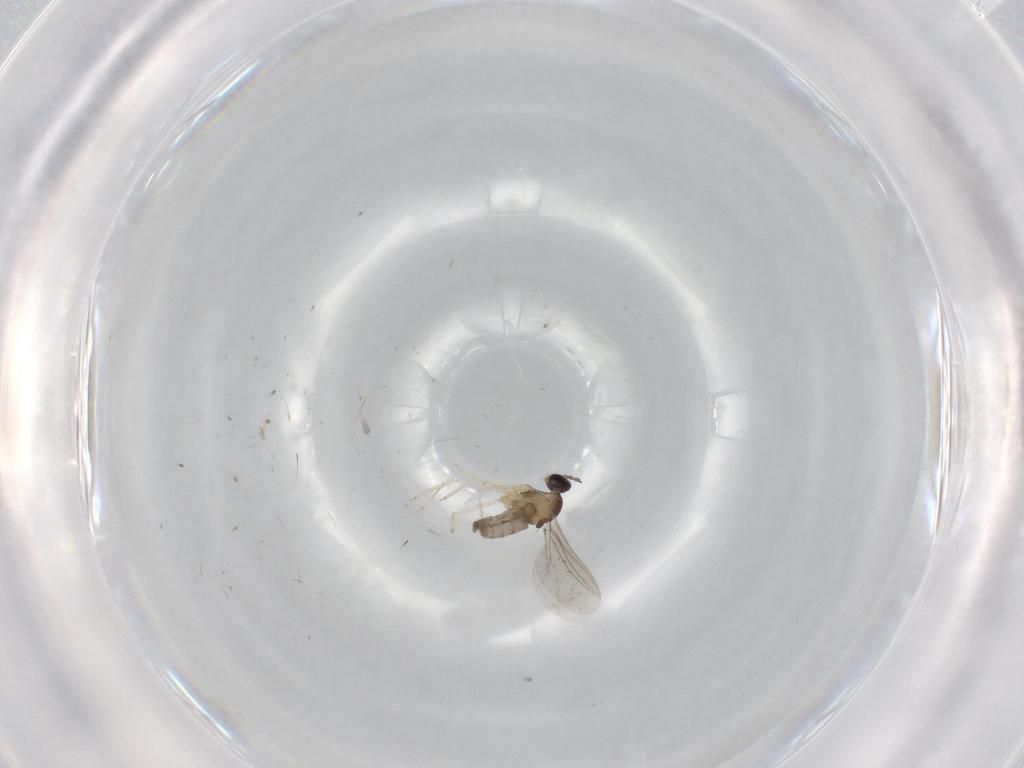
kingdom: Animalia
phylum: Arthropoda
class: Insecta
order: Diptera
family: Cecidomyiidae
